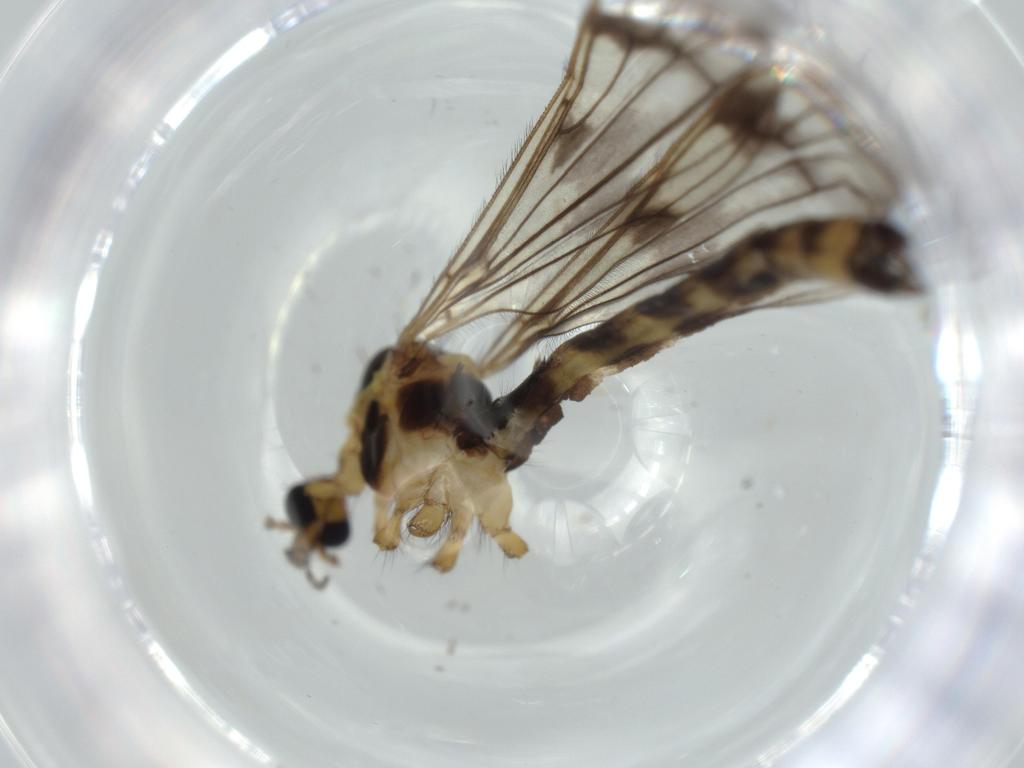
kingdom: Animalia
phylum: Arthropoda
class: Insecta
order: Diptera
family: Limoniidae
